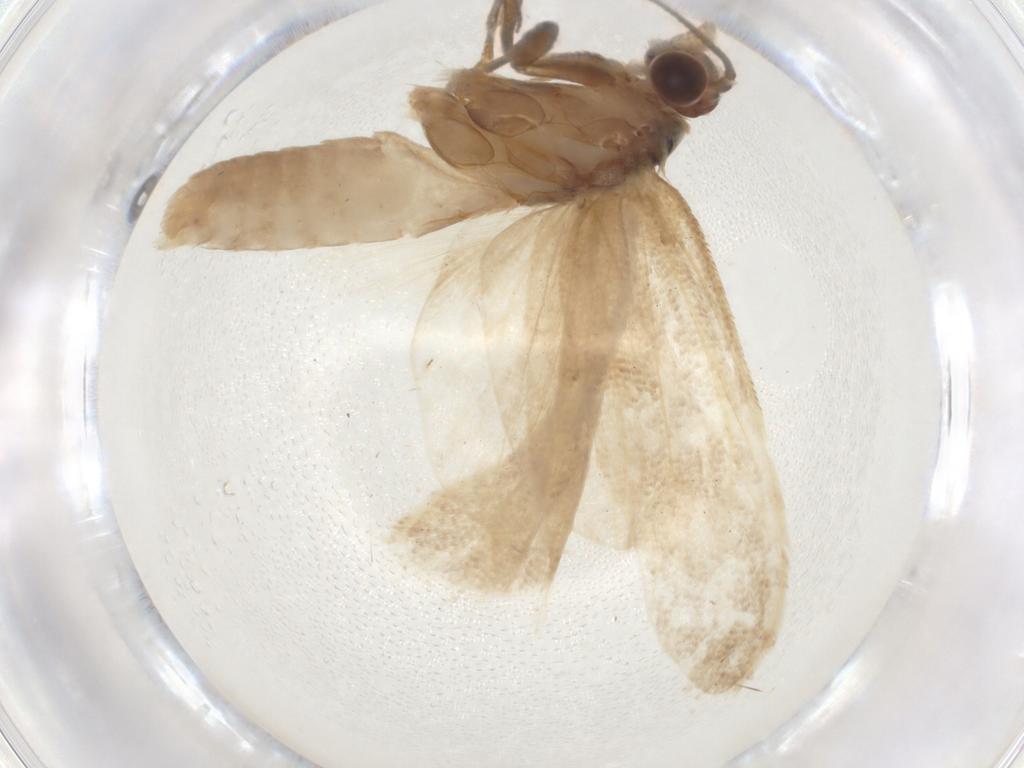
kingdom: Animalia
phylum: Arthropoda
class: Insecta
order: Lepidoptera
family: Tortricidae
